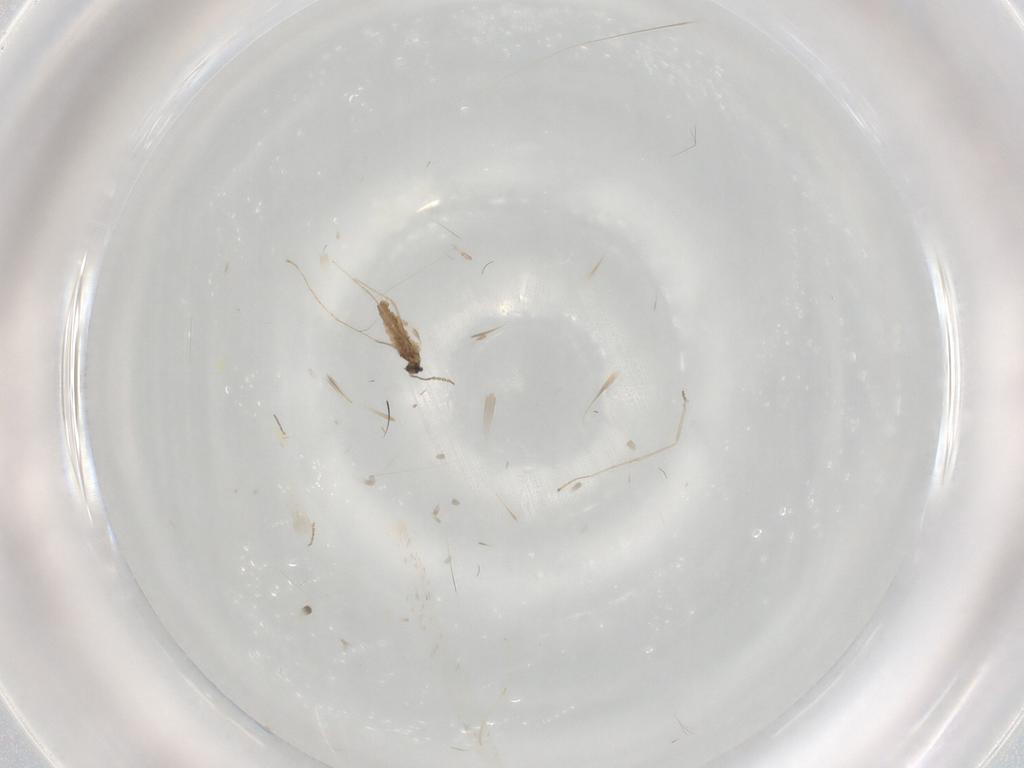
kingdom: Animalia
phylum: Arthropoda
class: Insecta
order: Diptera
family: Cecidomyiidae
